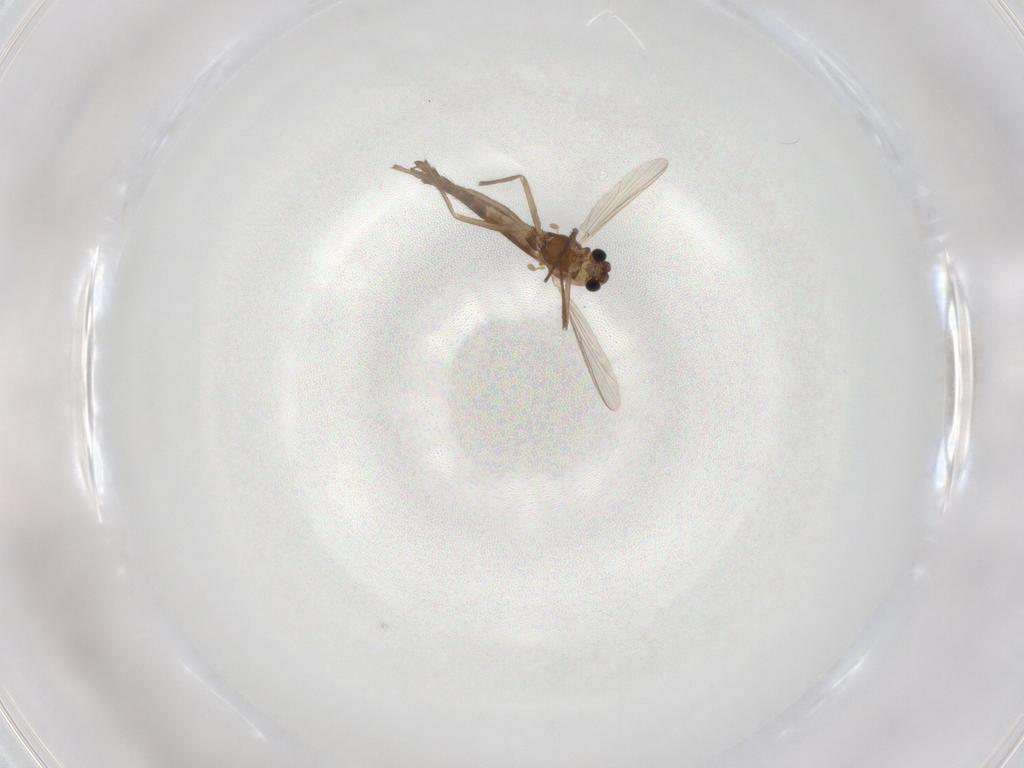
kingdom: Animalia
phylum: Arthropoda
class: Insecta
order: Diptera
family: Chironomidae
